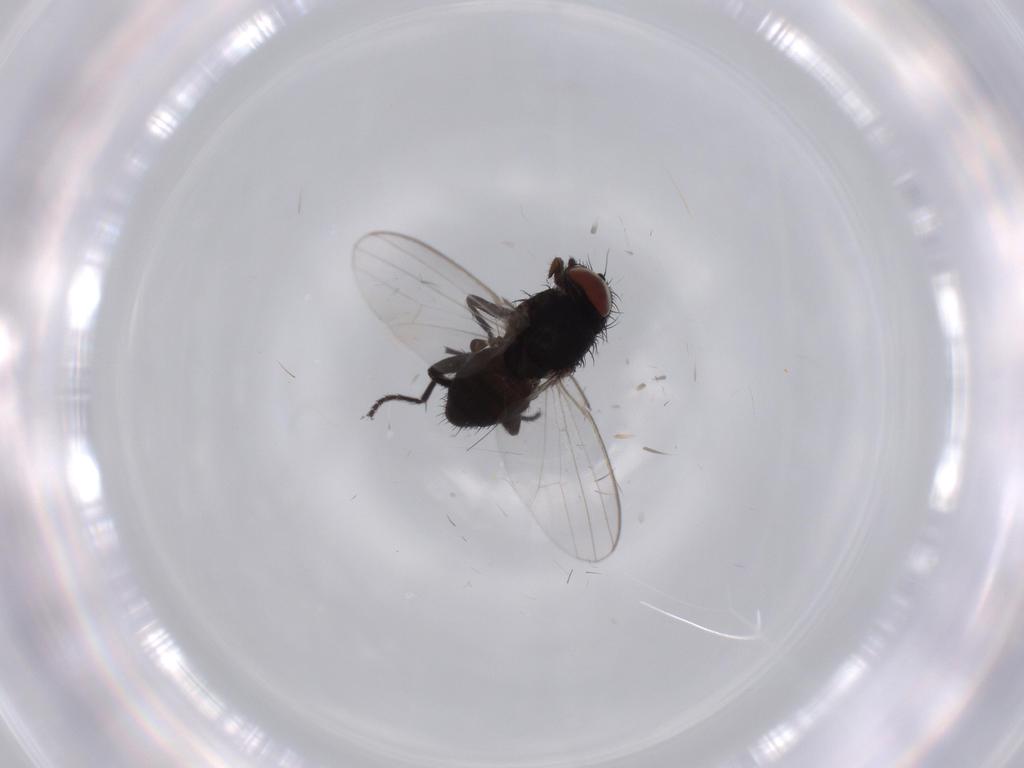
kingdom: Animalia
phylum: Arthropoda
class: Insecta
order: Diptera
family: Milichiidae
